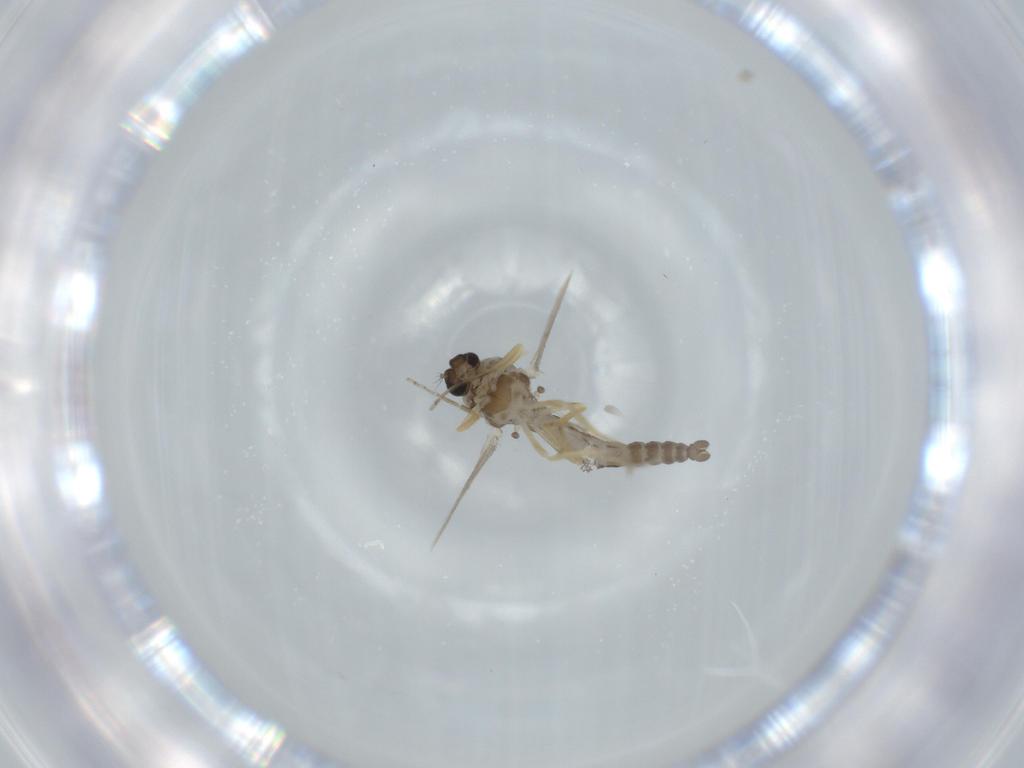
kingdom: Animalia
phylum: Arthropoda
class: Insecta
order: Diptera
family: Ceratopogonidae
